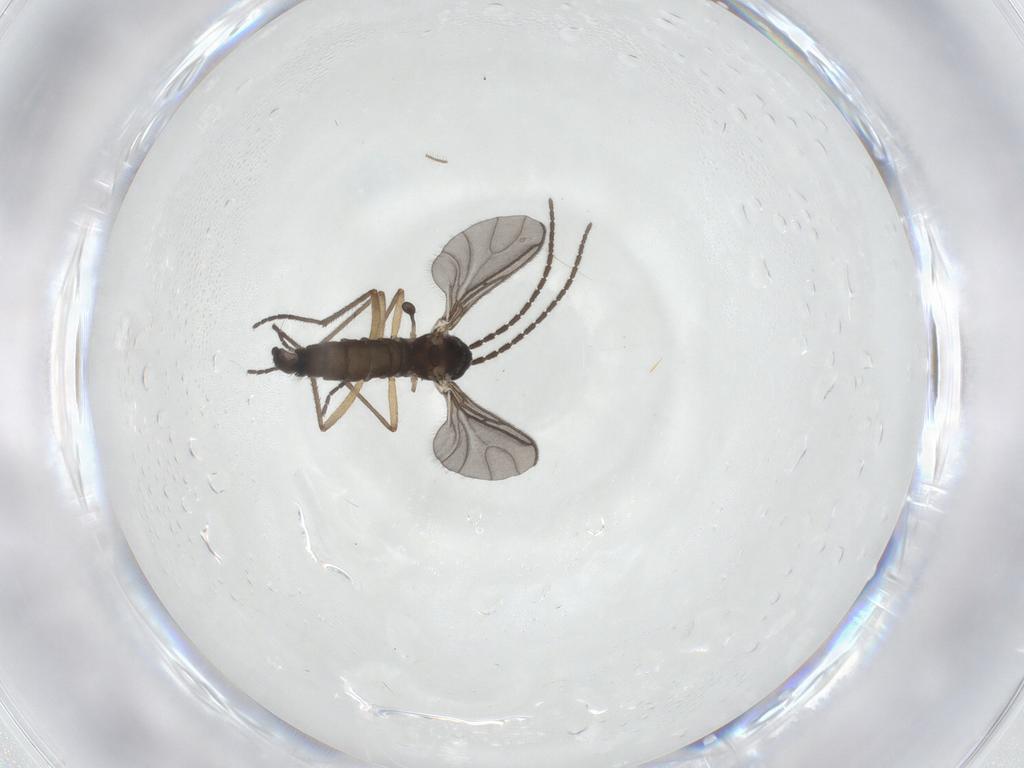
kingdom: Animalia
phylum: Arthropoda
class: Insecta
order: Diptera
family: Sciaridae
